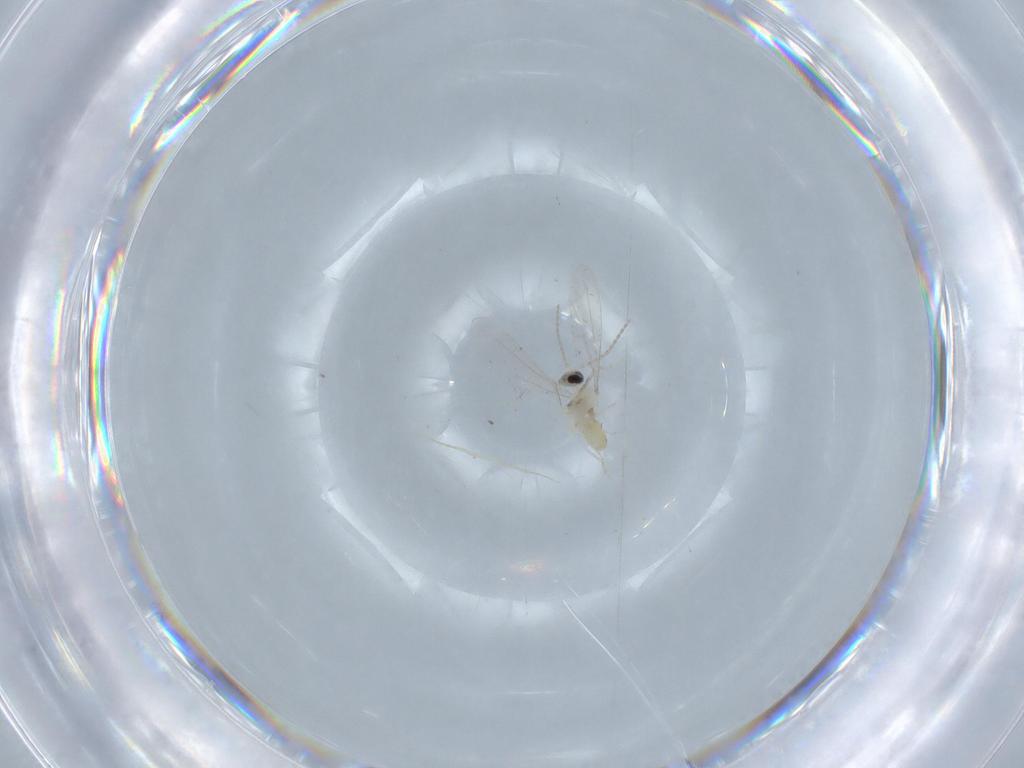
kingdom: Animalia
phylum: Arthropoda
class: Insecta
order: Diptera
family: Cecidomyiidae
